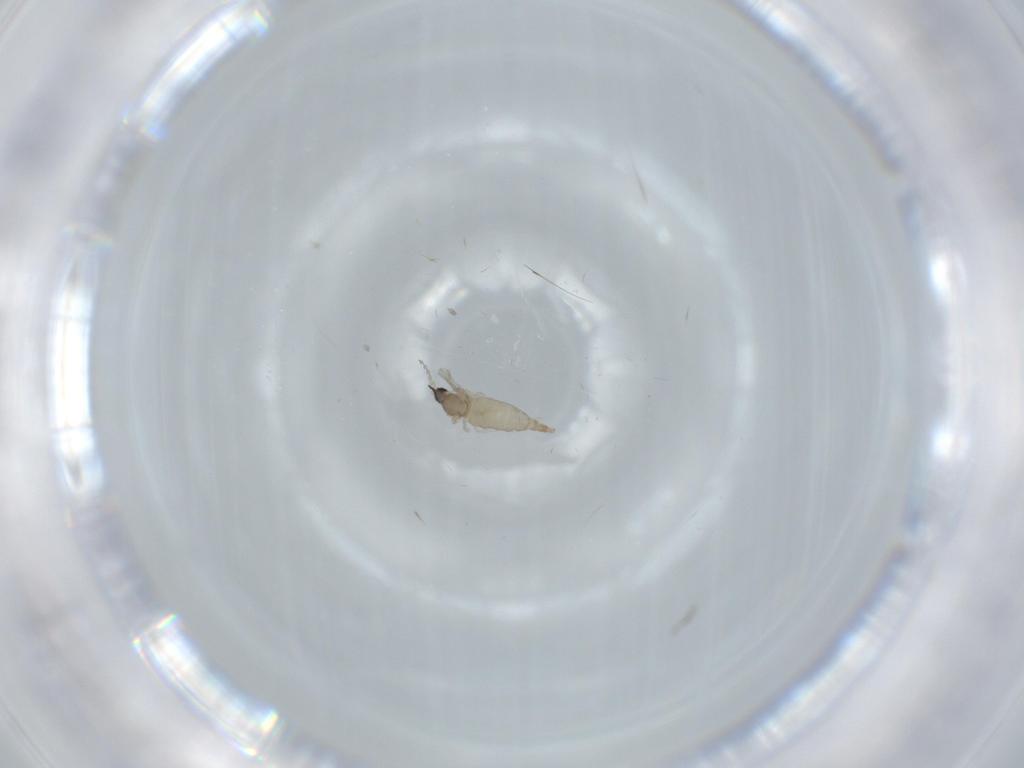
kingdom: Animalia
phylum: Arthropoda
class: Insecta
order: Diptera
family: Cecidomyiidae
